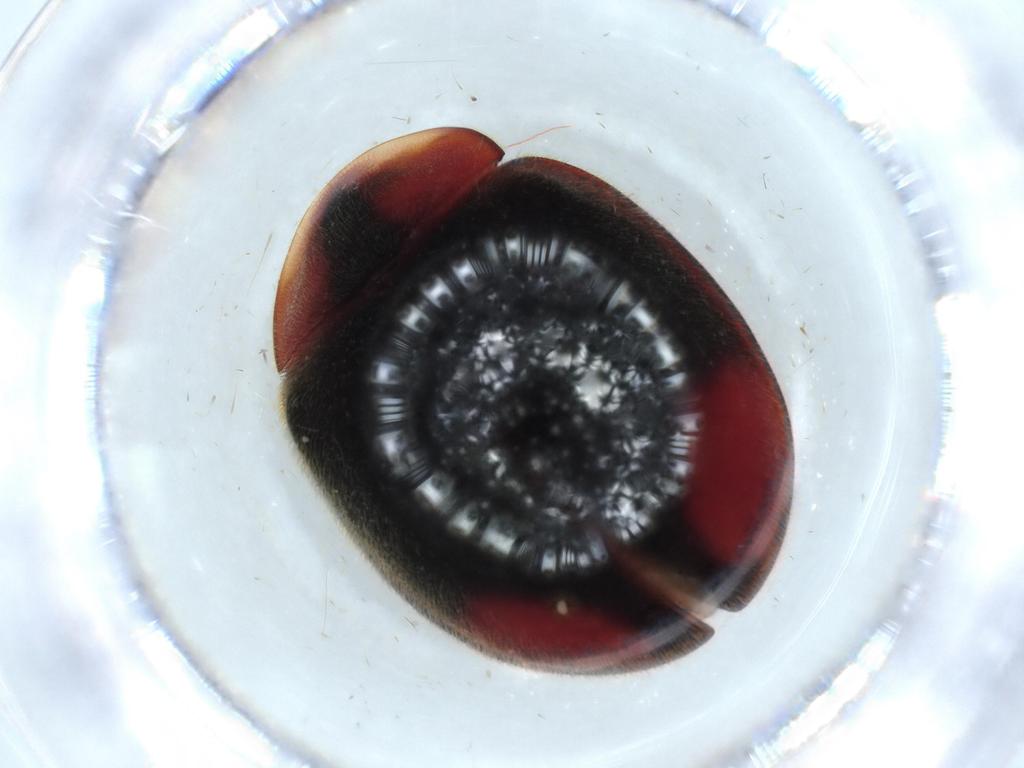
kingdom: Animalia
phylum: Arthropoda
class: Insecta
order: Coleoptera
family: Coccinellidae
